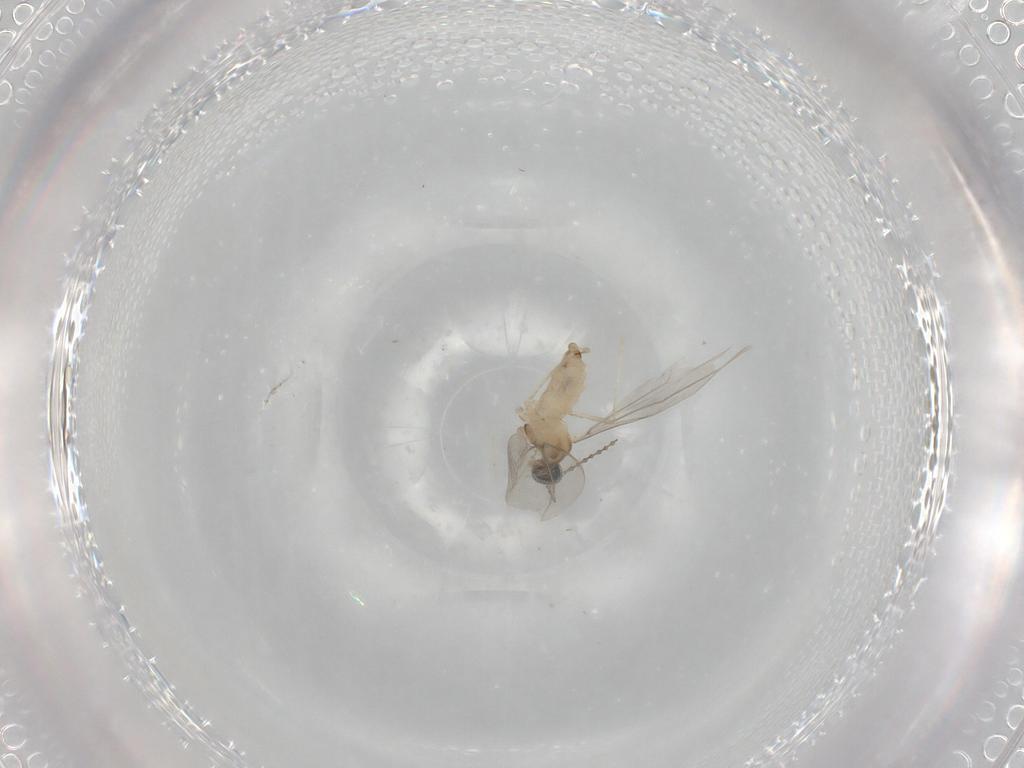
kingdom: Animalia
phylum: Arthropoda
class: Insecta
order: Diptera
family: Cecidomyiidae
